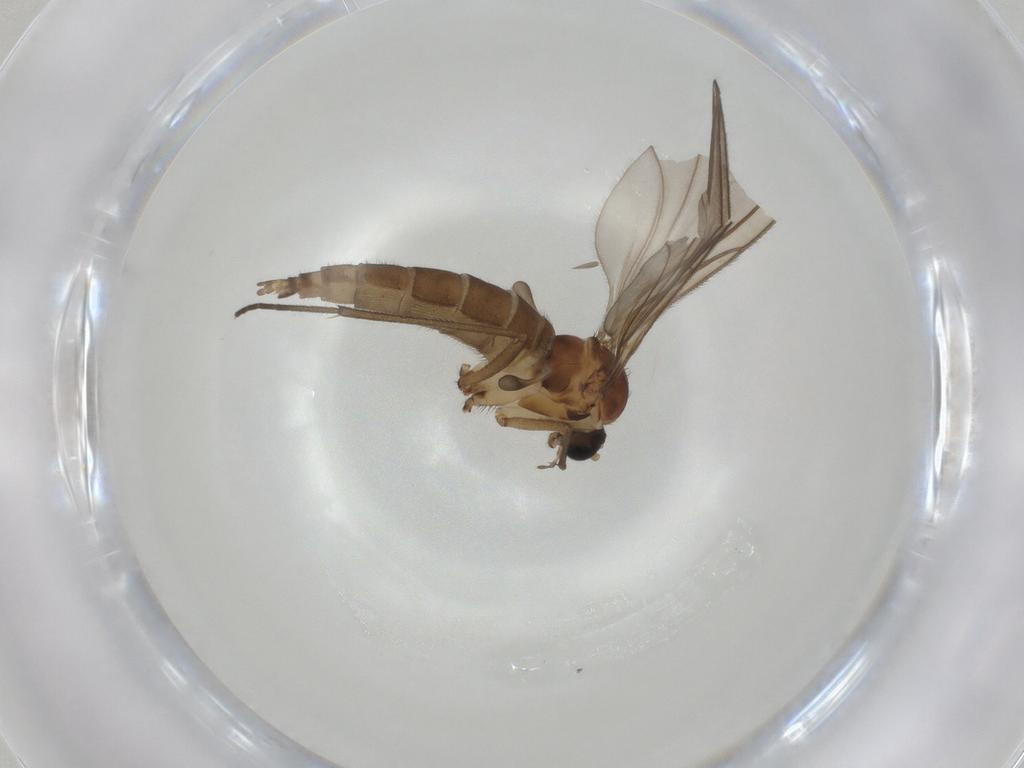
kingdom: Animalia
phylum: Arthropoda
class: Insecta
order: Diptera
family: Sciaridae
